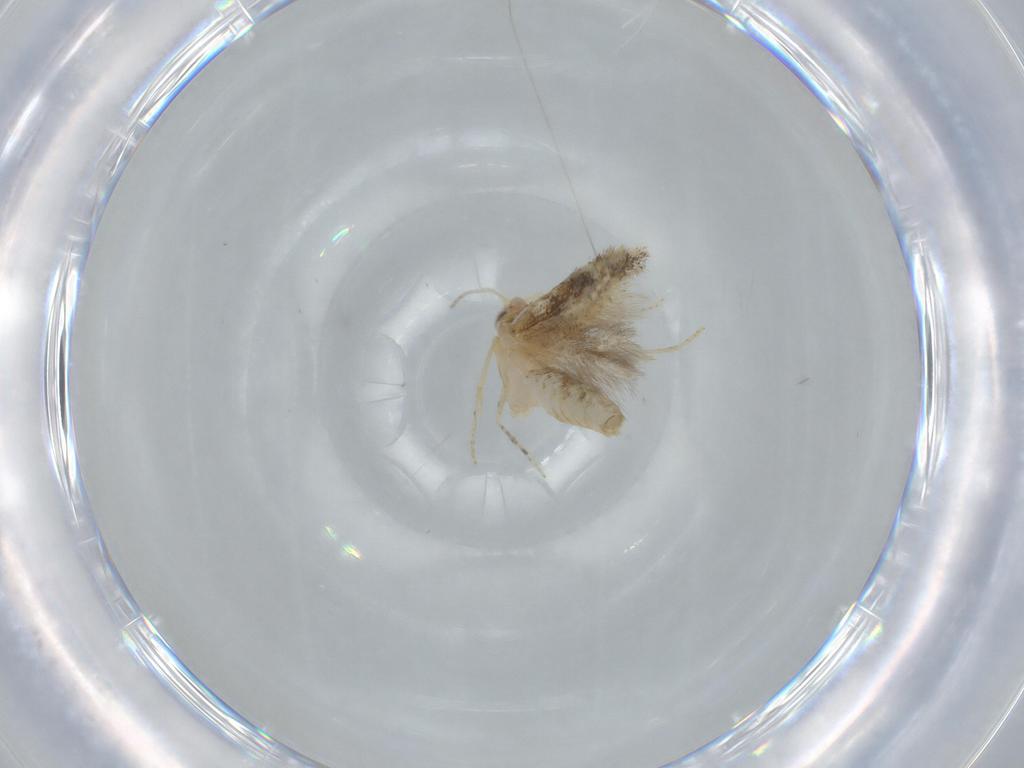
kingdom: Animalia
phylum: Arthropoda
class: Insecta
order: Lepidoptera
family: Bucculatricidae
